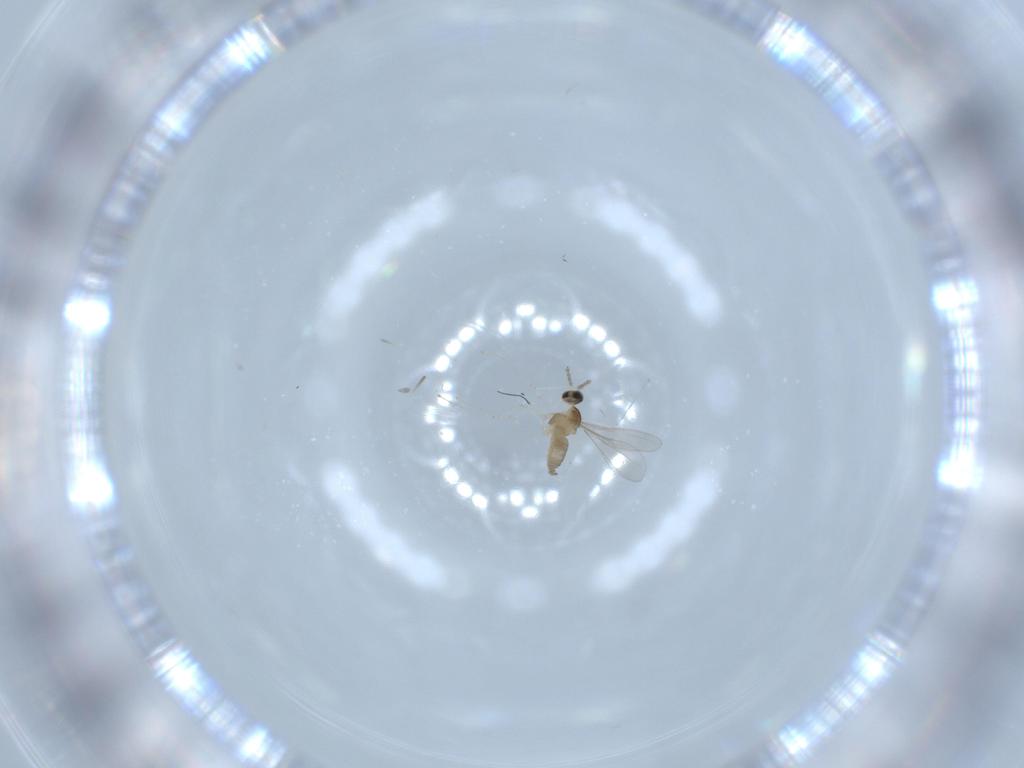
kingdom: Animalia
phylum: Arthropoda
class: Insecta
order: Diptera
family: Cecidomyiidae
